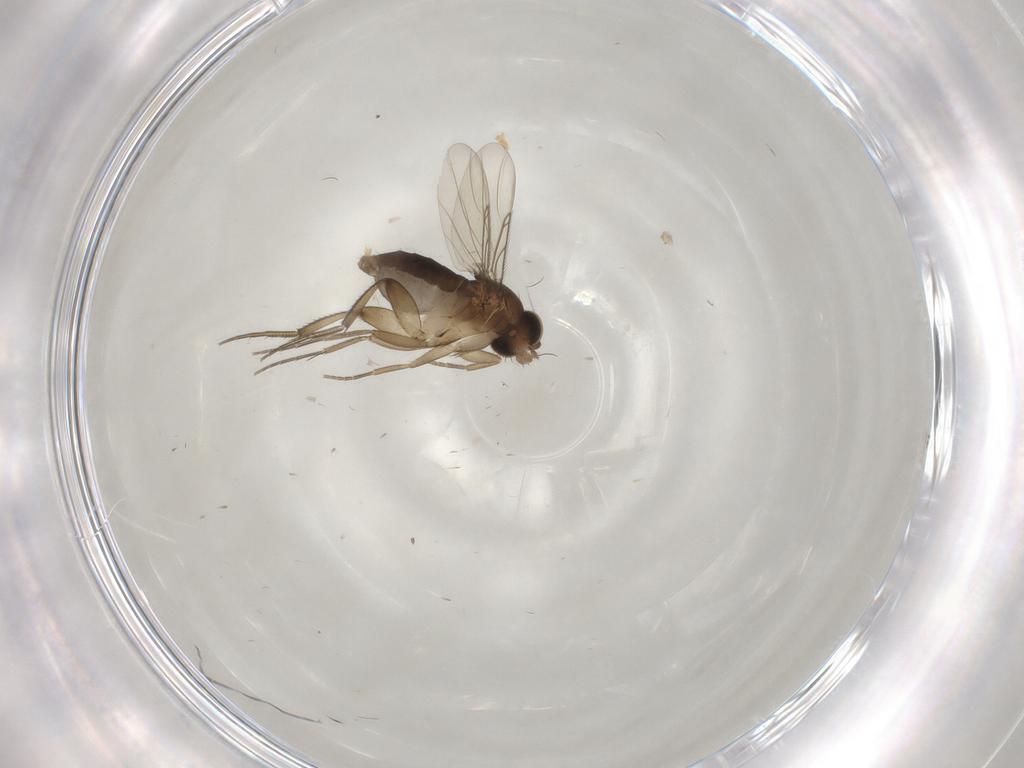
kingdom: Animalia
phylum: Arthropoda
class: Insecta
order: Diptera
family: Phoridae
